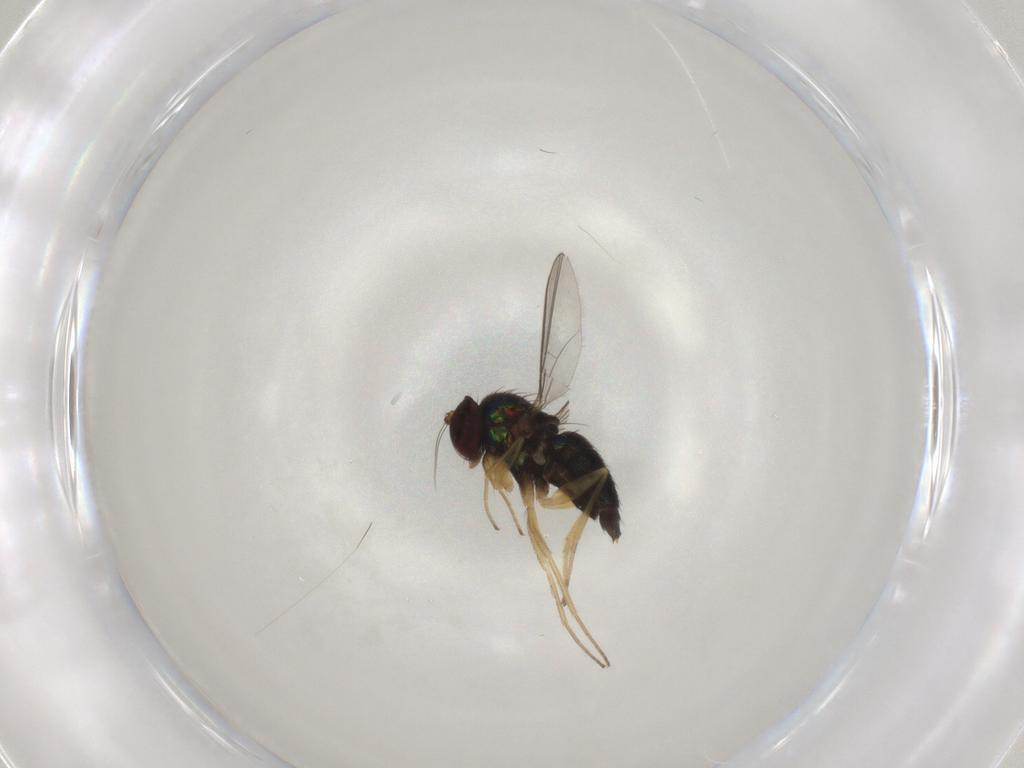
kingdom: Animalia
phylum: Arthropoda
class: Insecta
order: Diptera
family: Dolichopodidae
